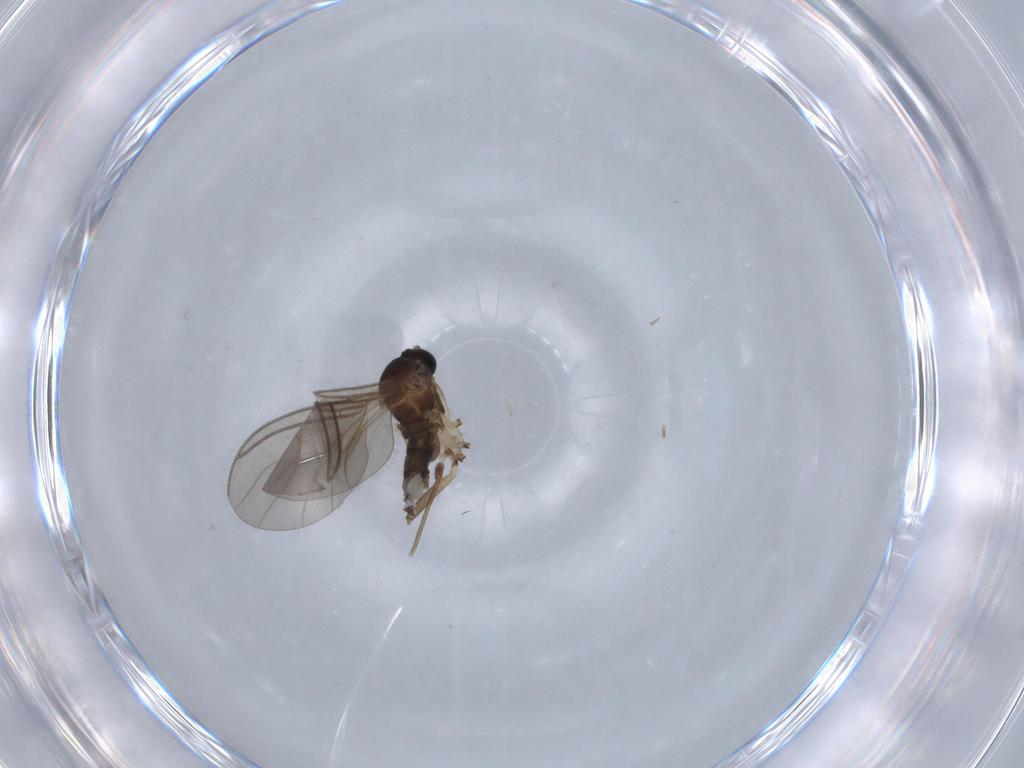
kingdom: Animalia
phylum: Arthropoda
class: Insecta
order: Diptera
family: Sciaridae
